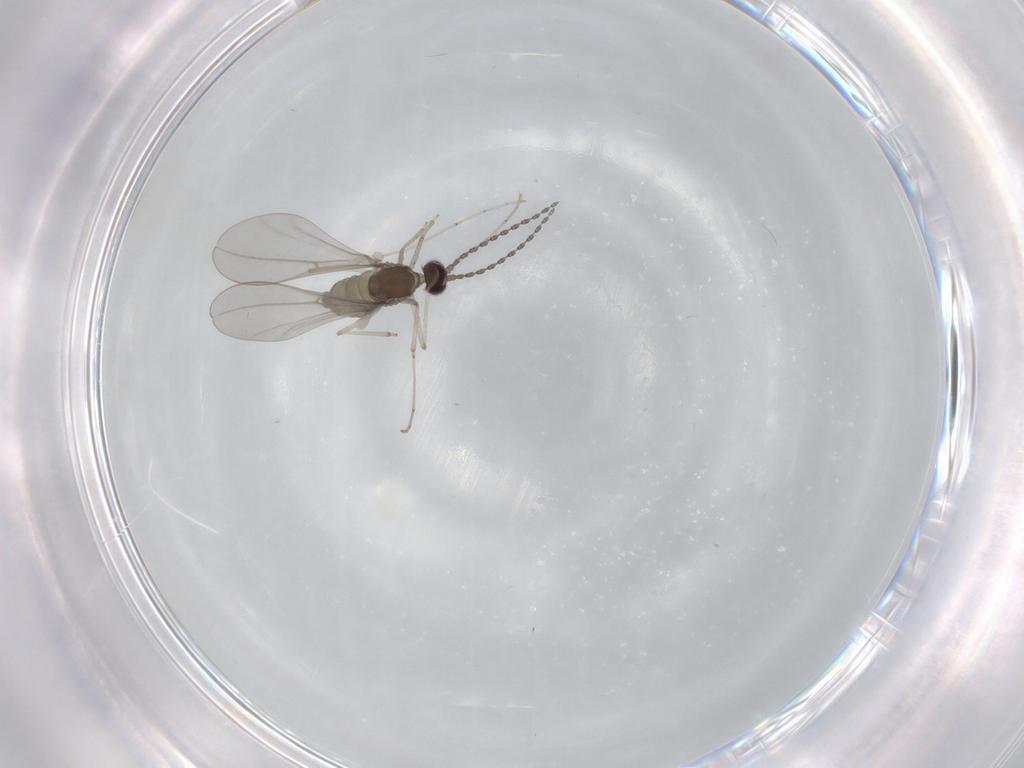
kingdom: Animalia
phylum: Arthropoda
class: Insecta
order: Diptera
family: Cecidomyiidae
